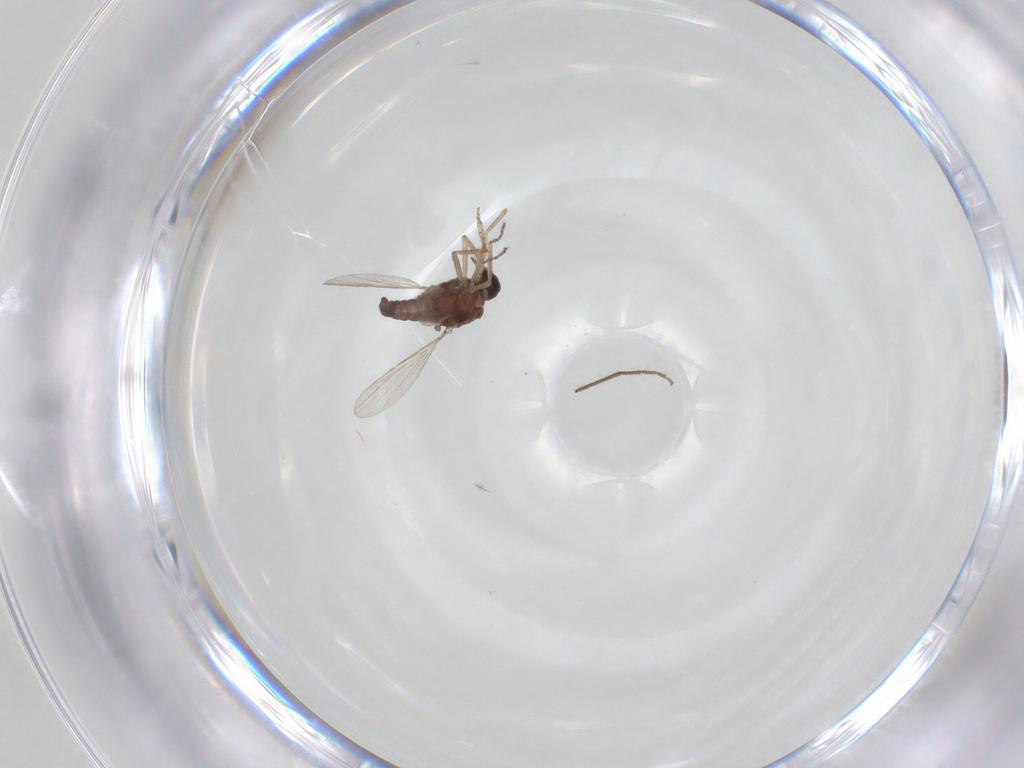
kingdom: Animalia
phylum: Arthropoda
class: Insecta
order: Diptera
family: Ceratopogonidae
